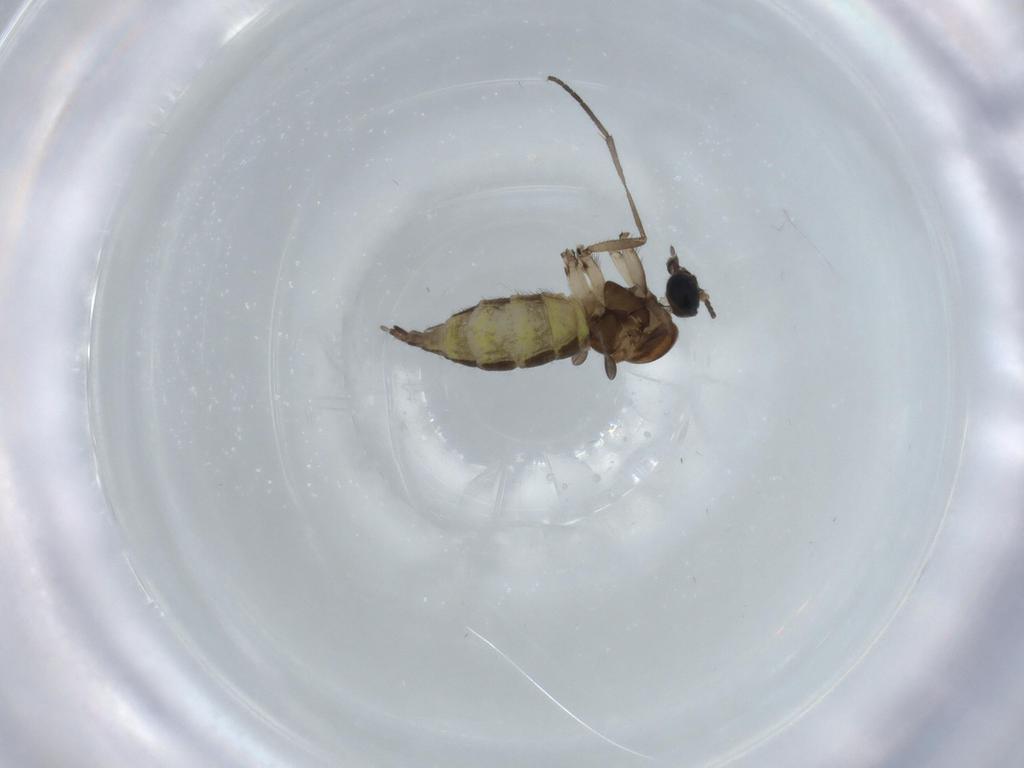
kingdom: Animalia
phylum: Arthropoda
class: Insecta
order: Diptera
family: Sciaridae
